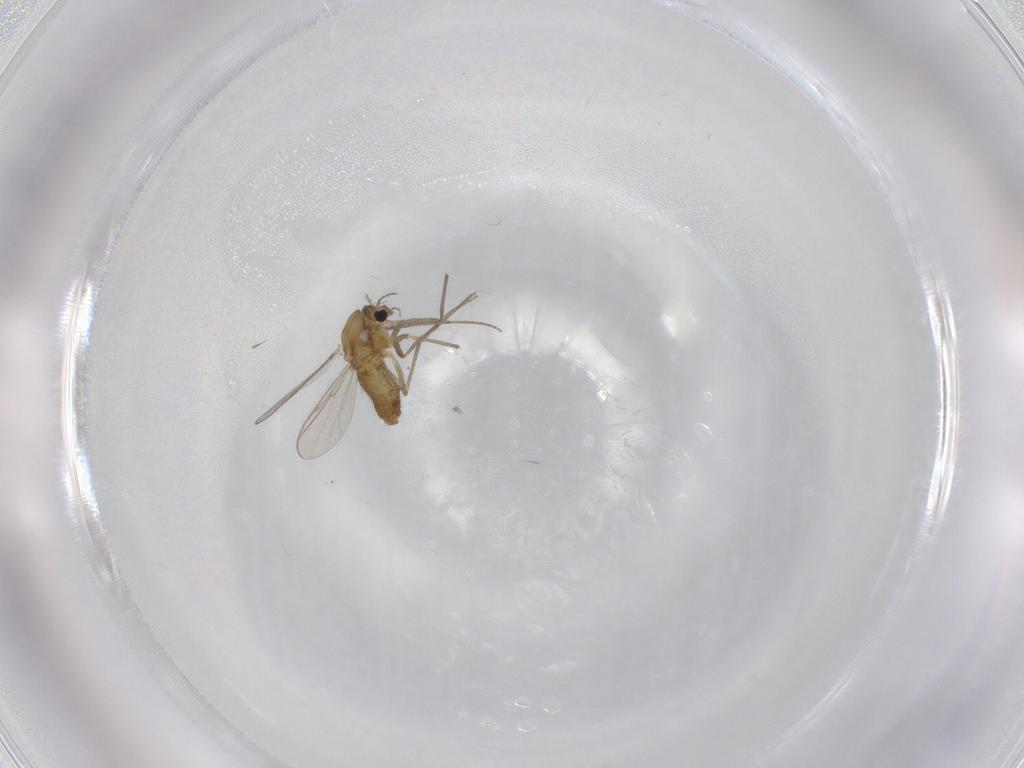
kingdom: Animalia
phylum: Arthropoda
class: Insecta
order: Diptera
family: Chironomidae
